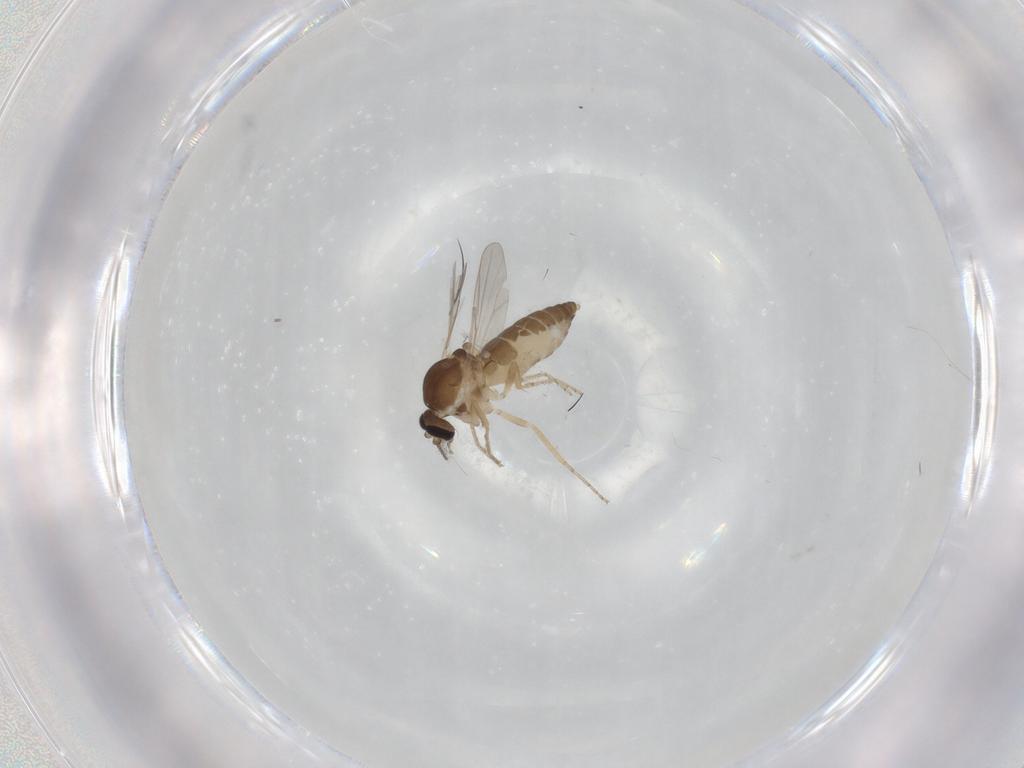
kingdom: Animalia
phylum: Arthropoda
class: Insecta
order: Diptera
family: Ceratopogonidae
